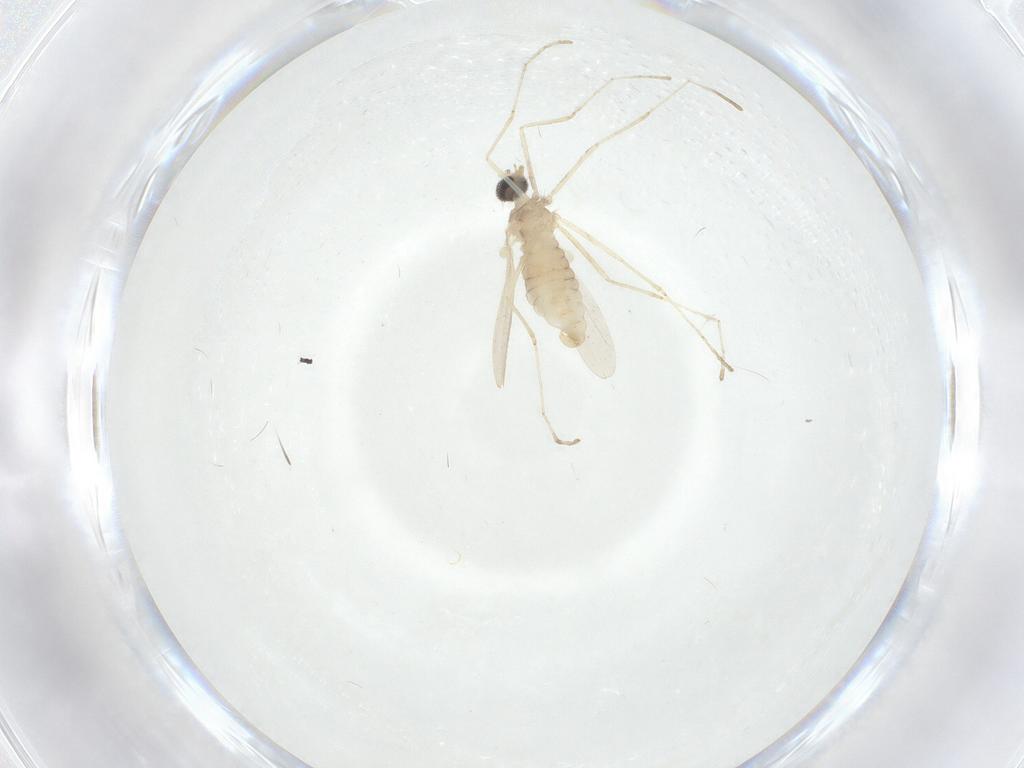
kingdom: Animalia
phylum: Arthropoda
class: Insecta
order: Diptera
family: Cecidomyiidae
